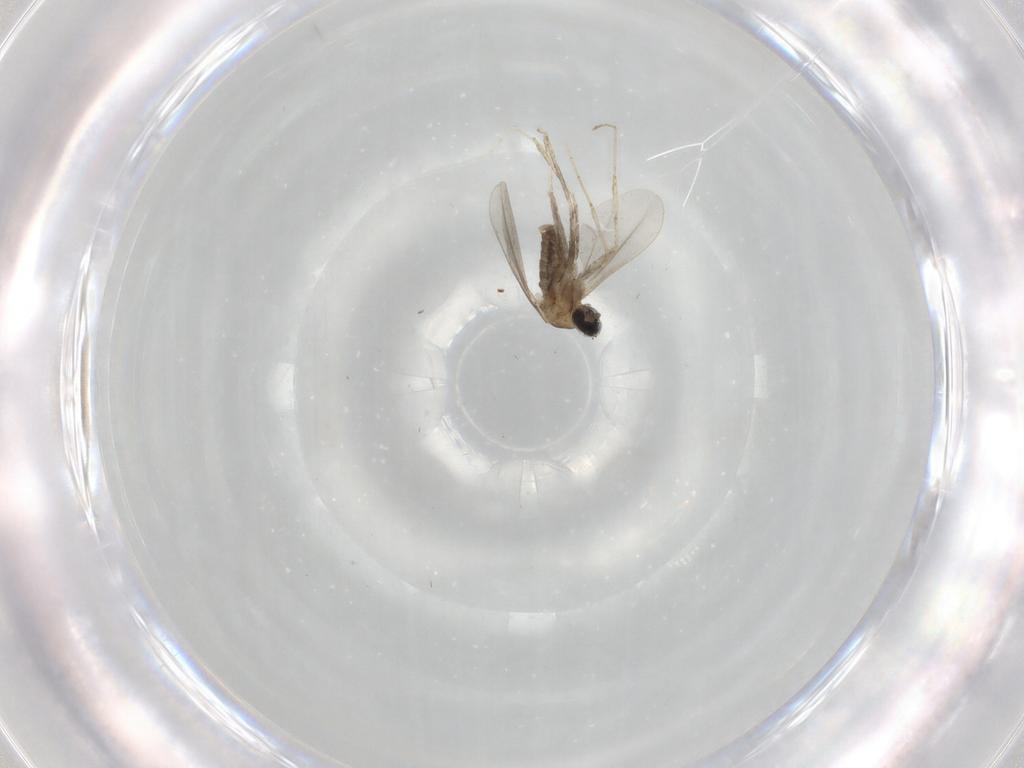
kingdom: Animalia
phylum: Arthropoda
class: Insecta
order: Diptera
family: Cecidomyiidae
